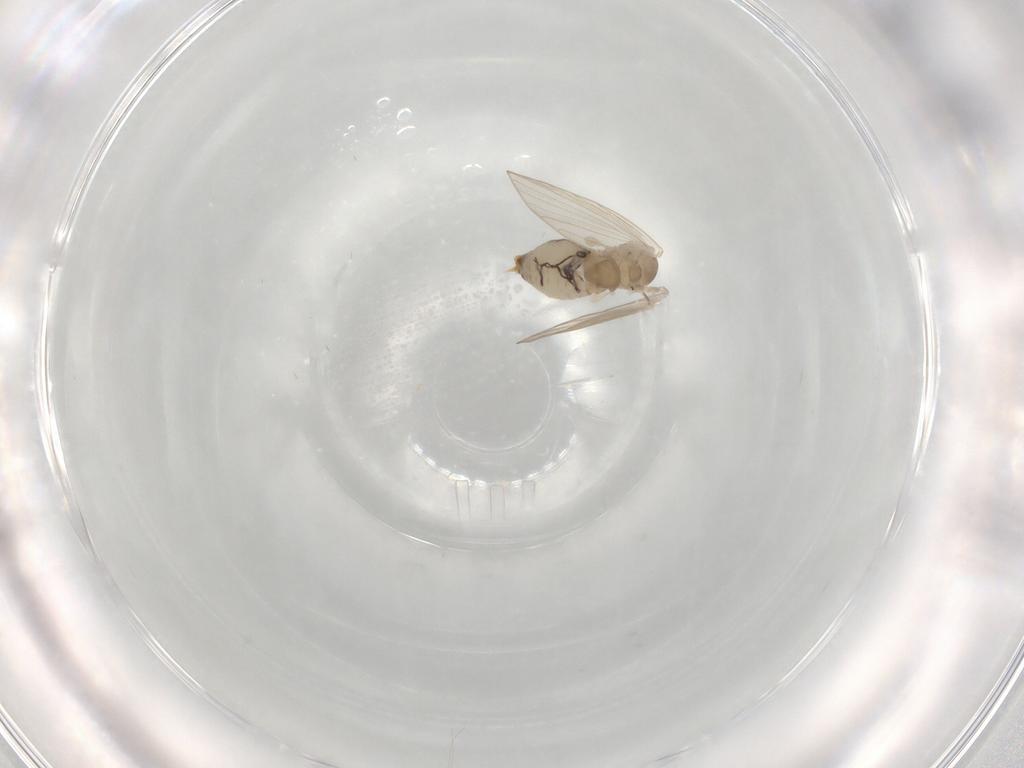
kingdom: Animalia
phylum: Arthropoda
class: Insecta
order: Diptera
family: Psychodidae
